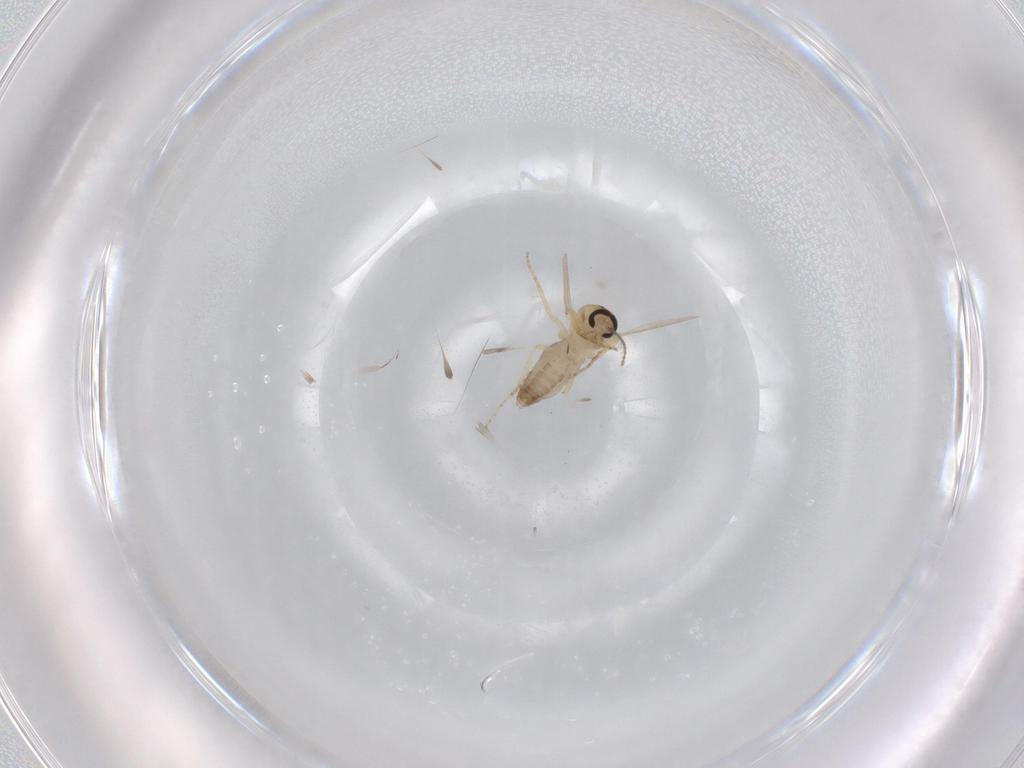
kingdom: Animalia
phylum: Arthropoda
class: Insecta
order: Diptera
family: Ceratopogonidae
